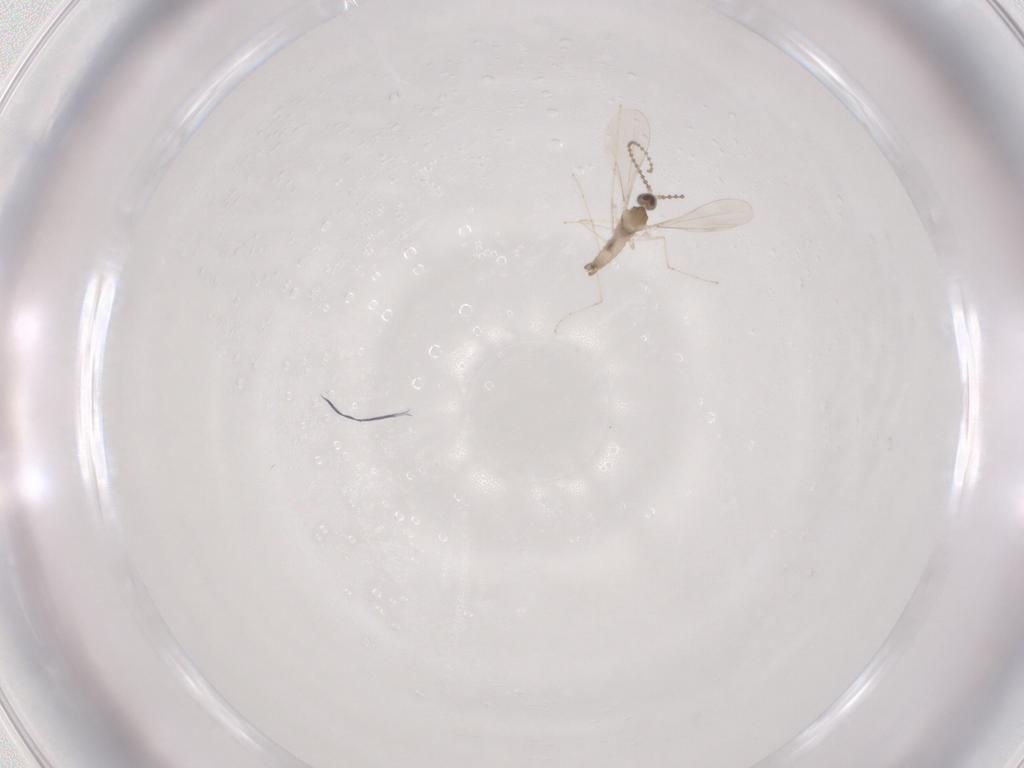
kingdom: Animalia
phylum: Arthropoda
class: Insecta
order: Diptera
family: Cecidomyiidae
